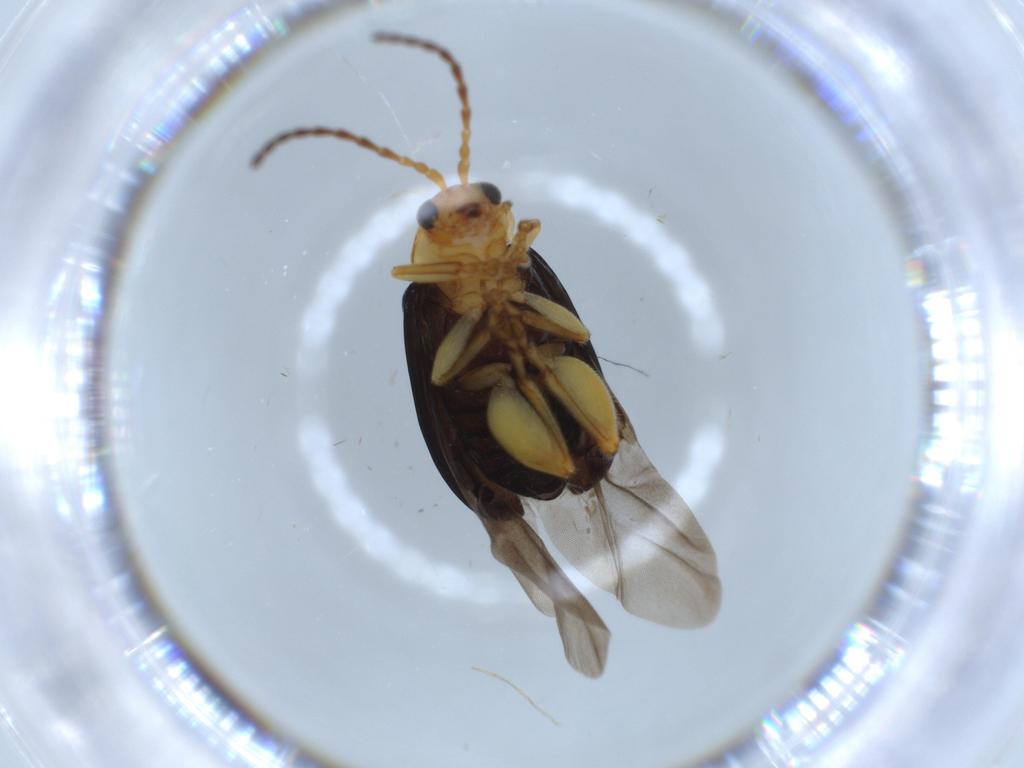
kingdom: Animalia
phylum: Arthropoda
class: Insecta
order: Coleoptera
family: Chrysomelidae
